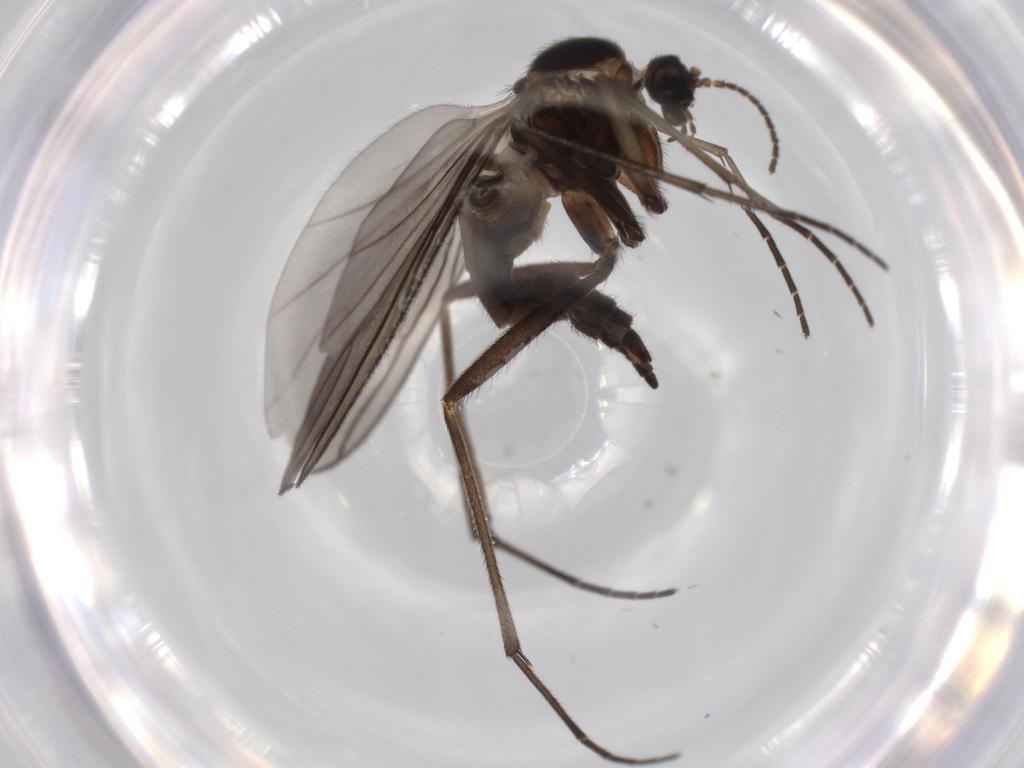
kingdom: Animalia
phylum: Arthropoda
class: Insecta
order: Diptera
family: Sciaridae
